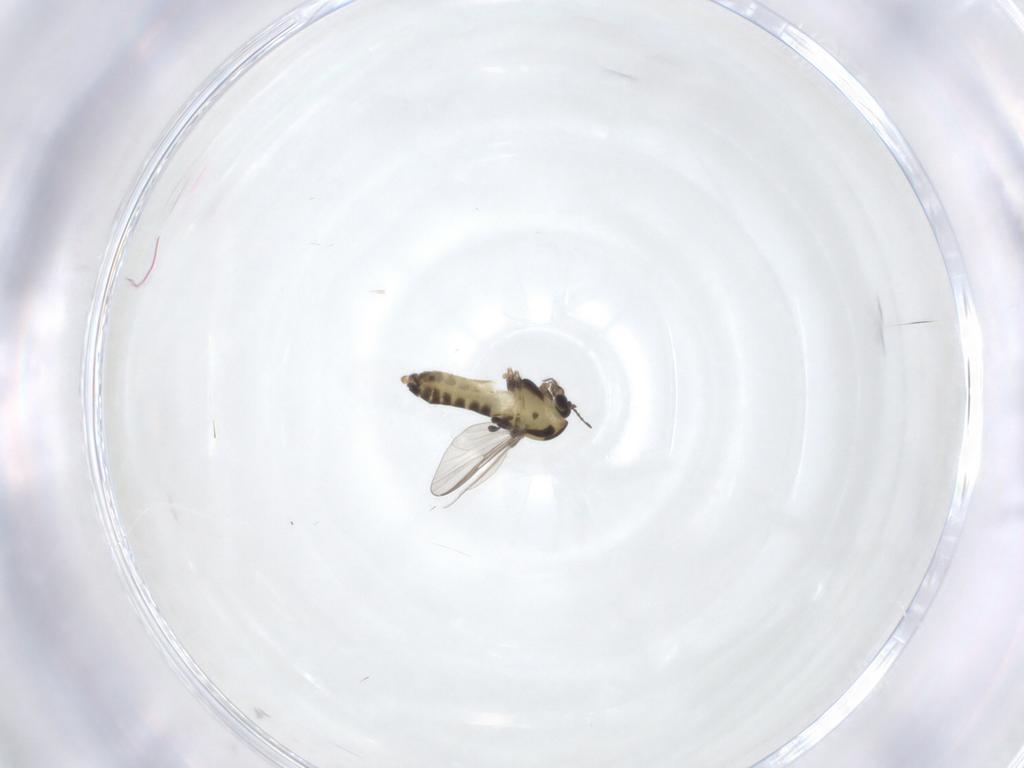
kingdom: Animalia
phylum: Arthropoda
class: Insecta
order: Diptera
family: Chironomidae
